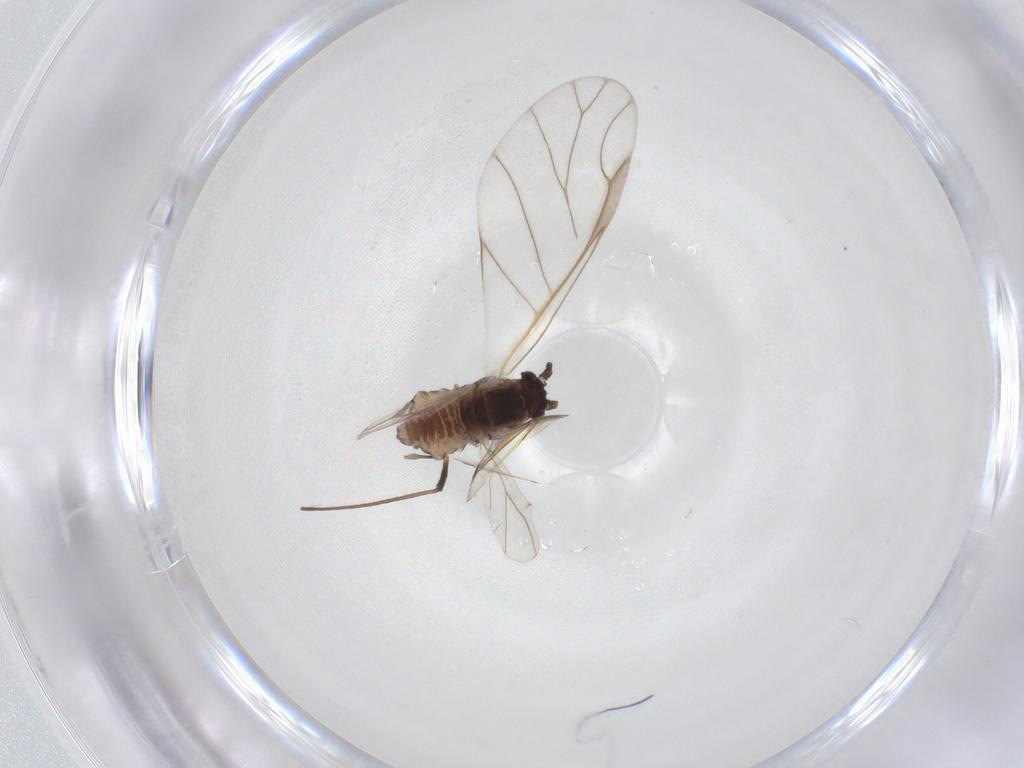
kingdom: Animalia
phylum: Arthropoda
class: Insecta
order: Hemiptera
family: Aphididae
